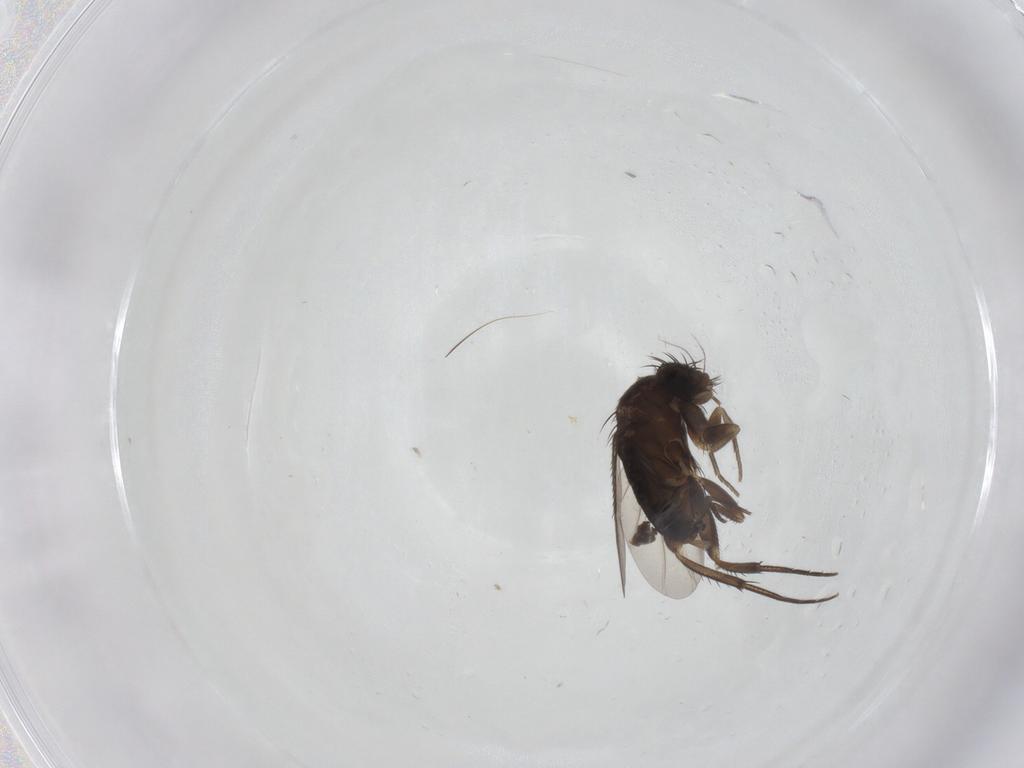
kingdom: Animalia
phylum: Arthropoda
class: Insecta
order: Diptera
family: Phoridae
